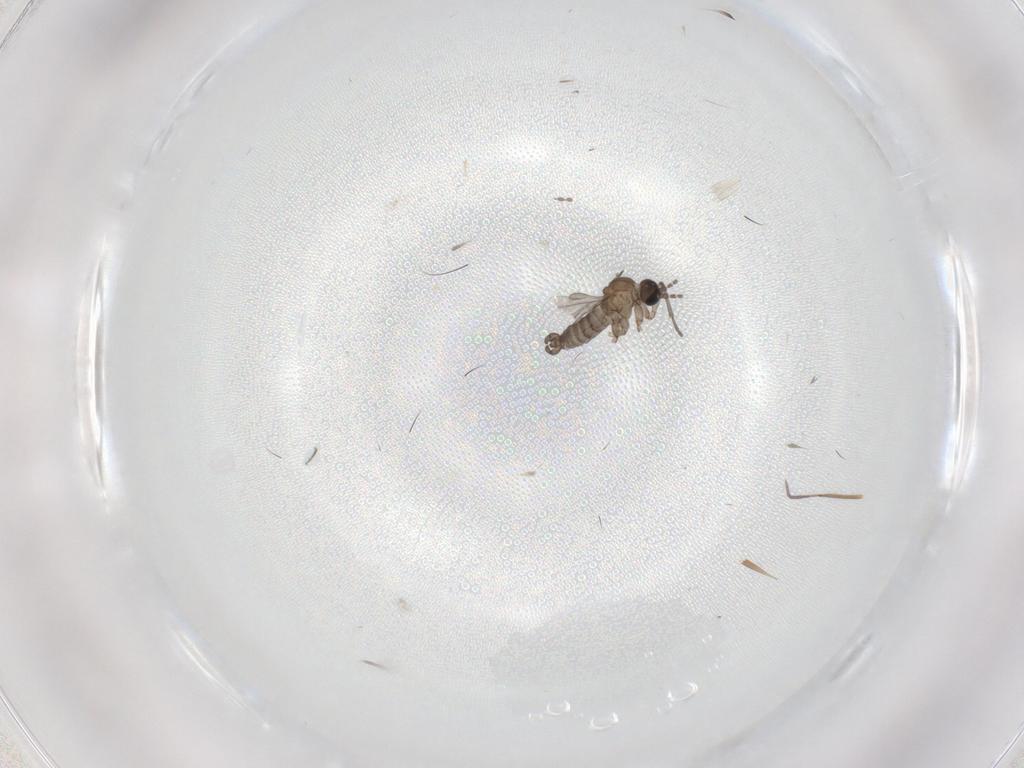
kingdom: Animalia
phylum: Arthropoda
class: Insecta
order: Diptera
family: Sciaridae
